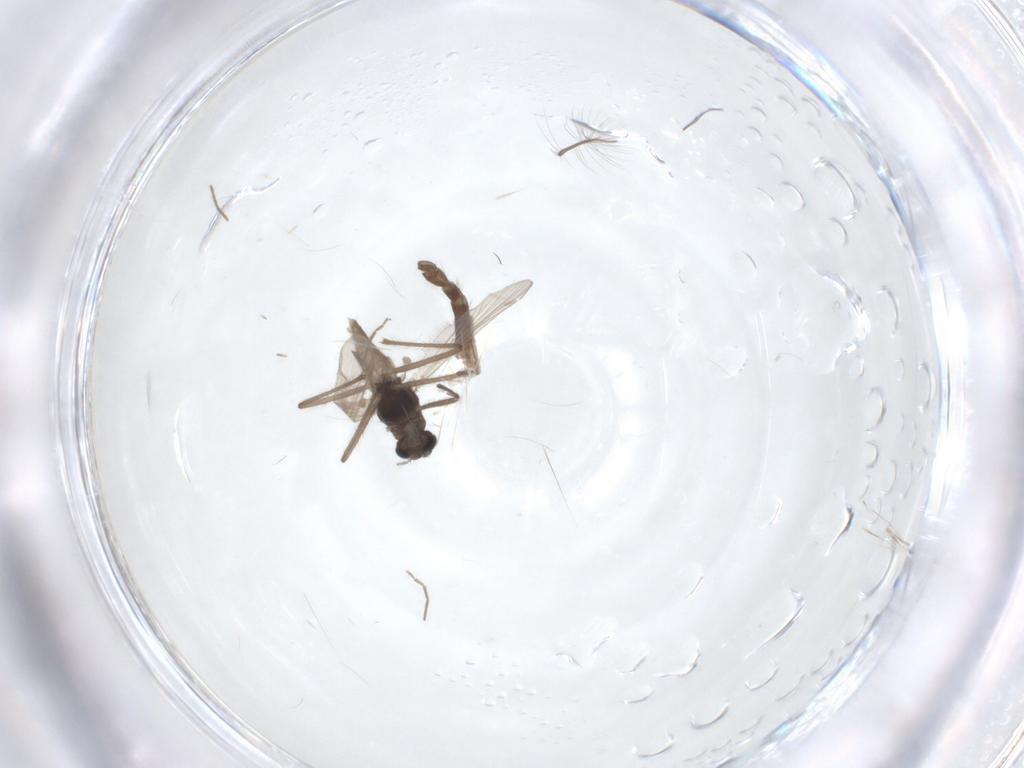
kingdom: Animalia
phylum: Arthropoda
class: Insecta
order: Diptera
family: Chironomidae
